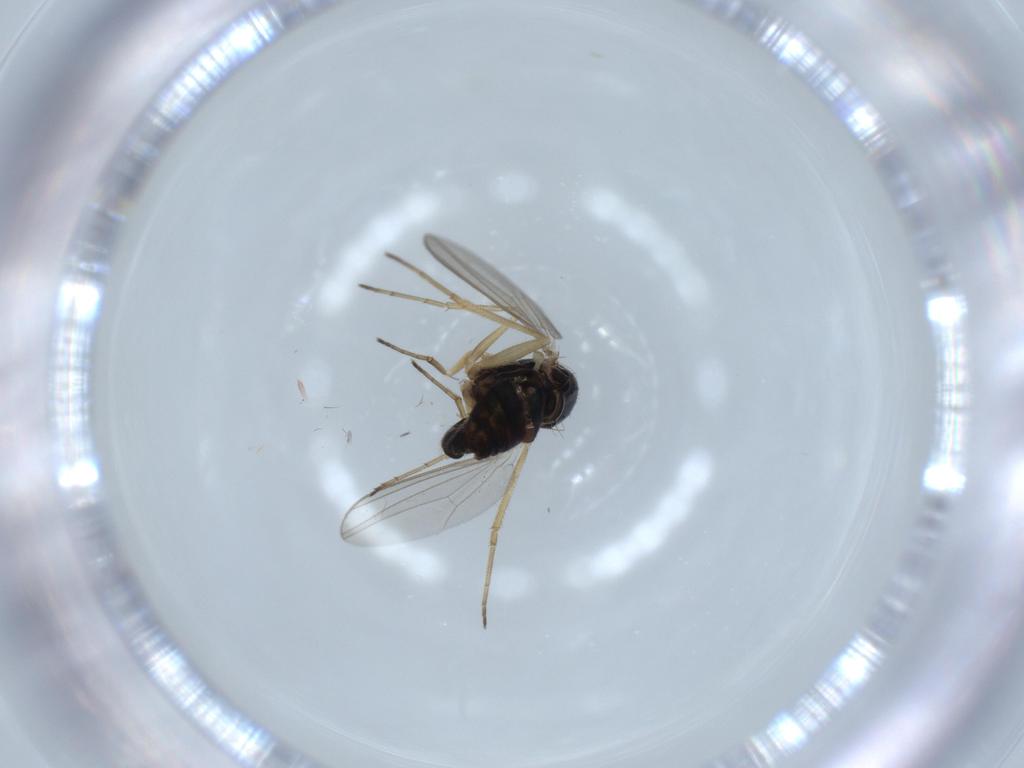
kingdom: Animalia
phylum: Arthropoda
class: Insecta
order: Diptera
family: Dolichopodidae
